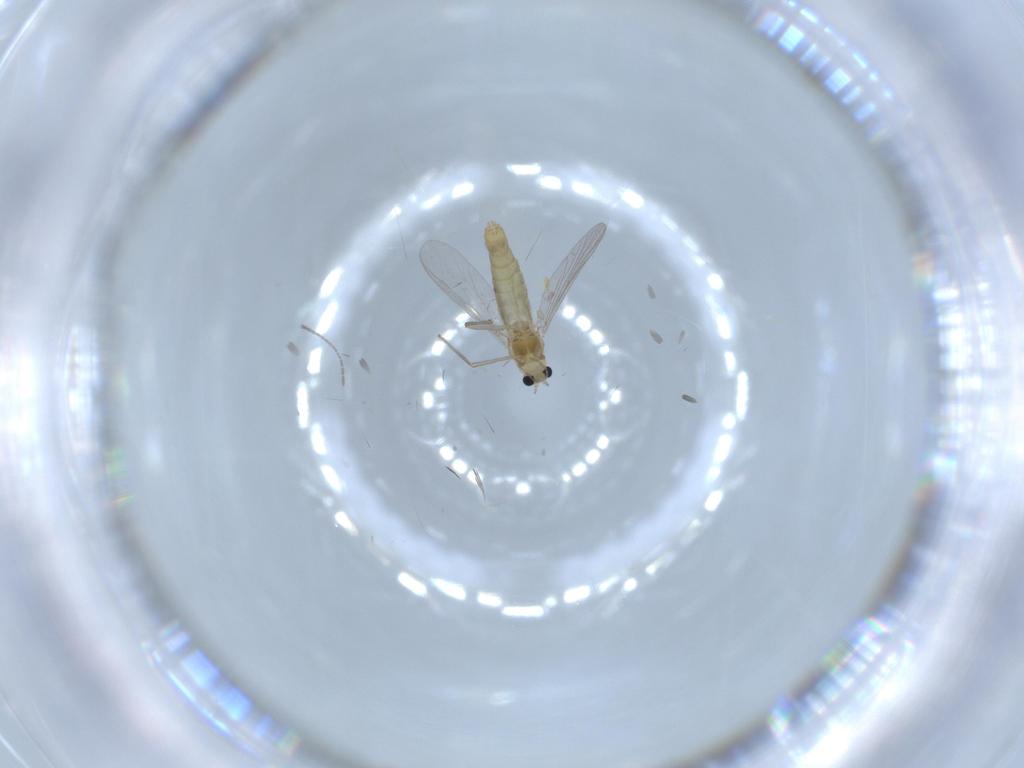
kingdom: Animalia
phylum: Arthropoda
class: Insecta
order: Diptera
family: Chironomidae
